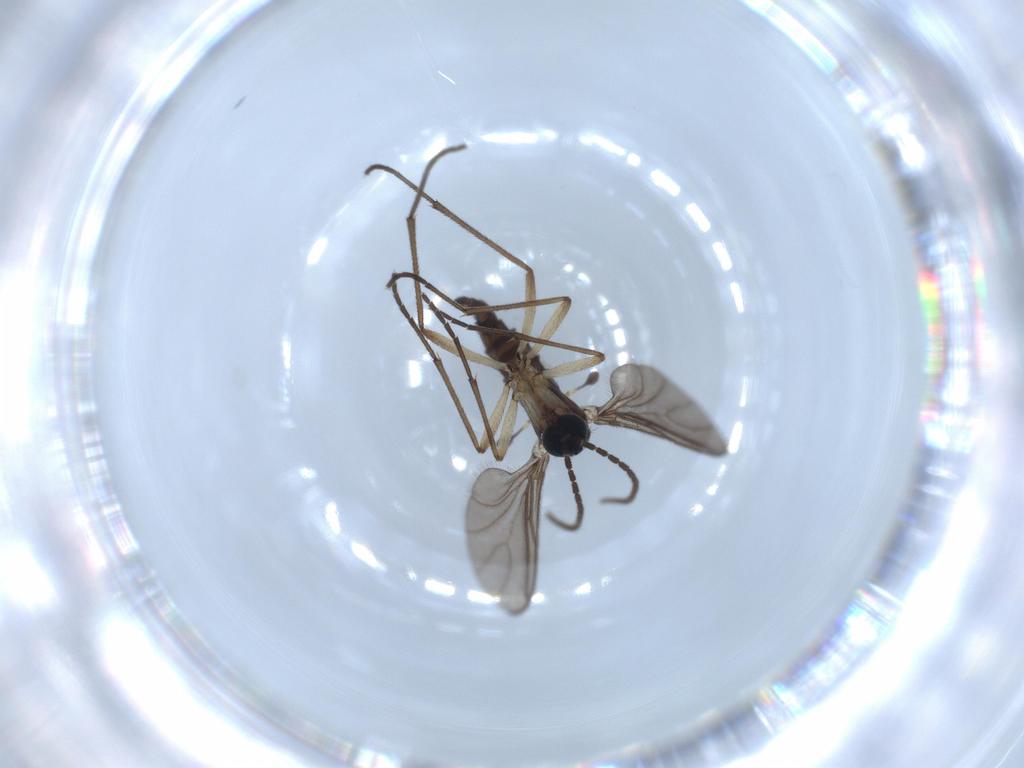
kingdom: Animalia
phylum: Arthropoda
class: Insecta
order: Diptera
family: Sciaridae
